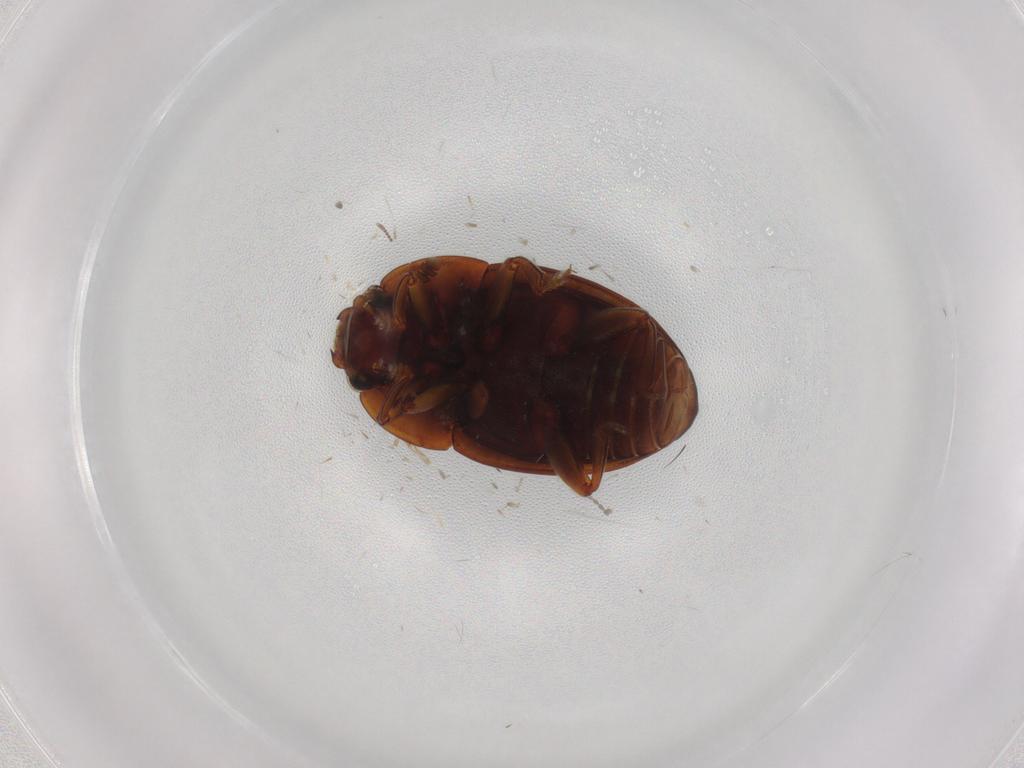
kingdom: Animalia
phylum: Arthropoda
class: Insecta
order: Coleoptera
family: Nitidulidae
